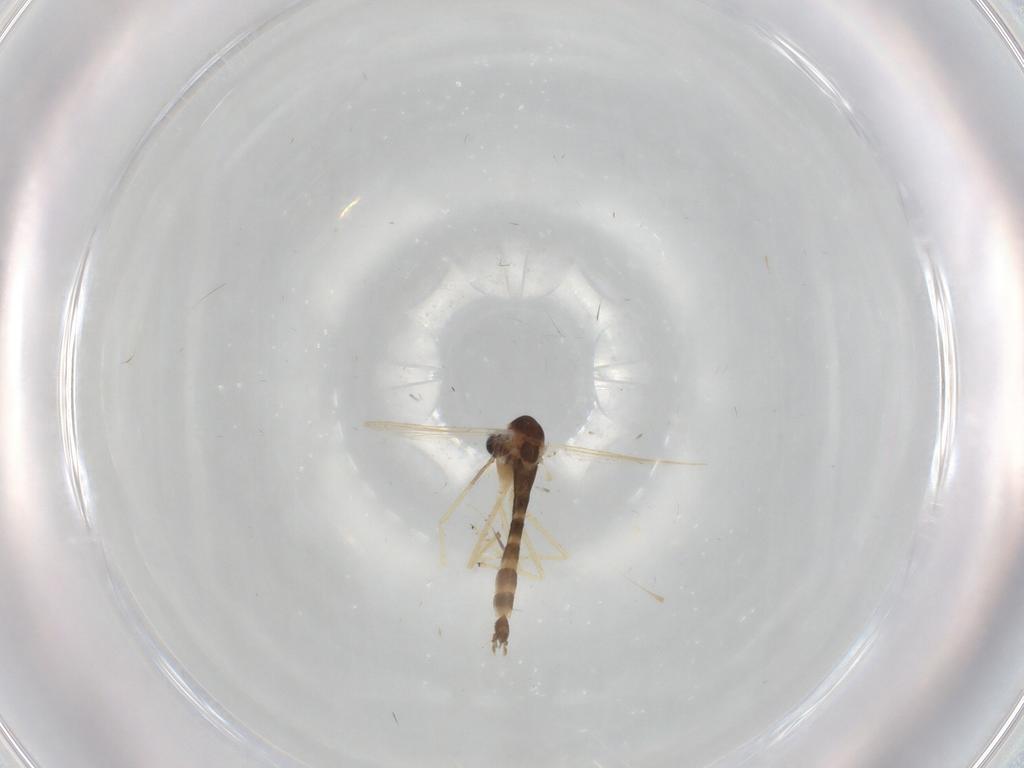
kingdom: Animalia
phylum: Arthropoda
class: Insecta
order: Diptera
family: Chironomidae
